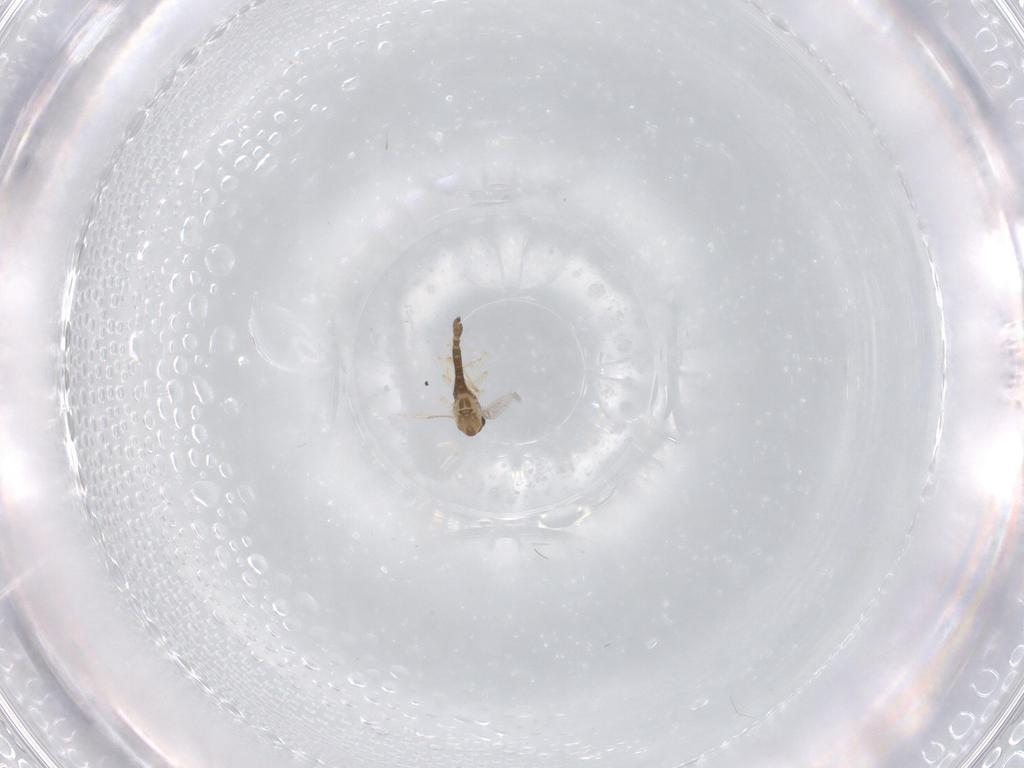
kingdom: Animalia
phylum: Arthropoda
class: Insecta
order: Diptera
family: Chironomidae
